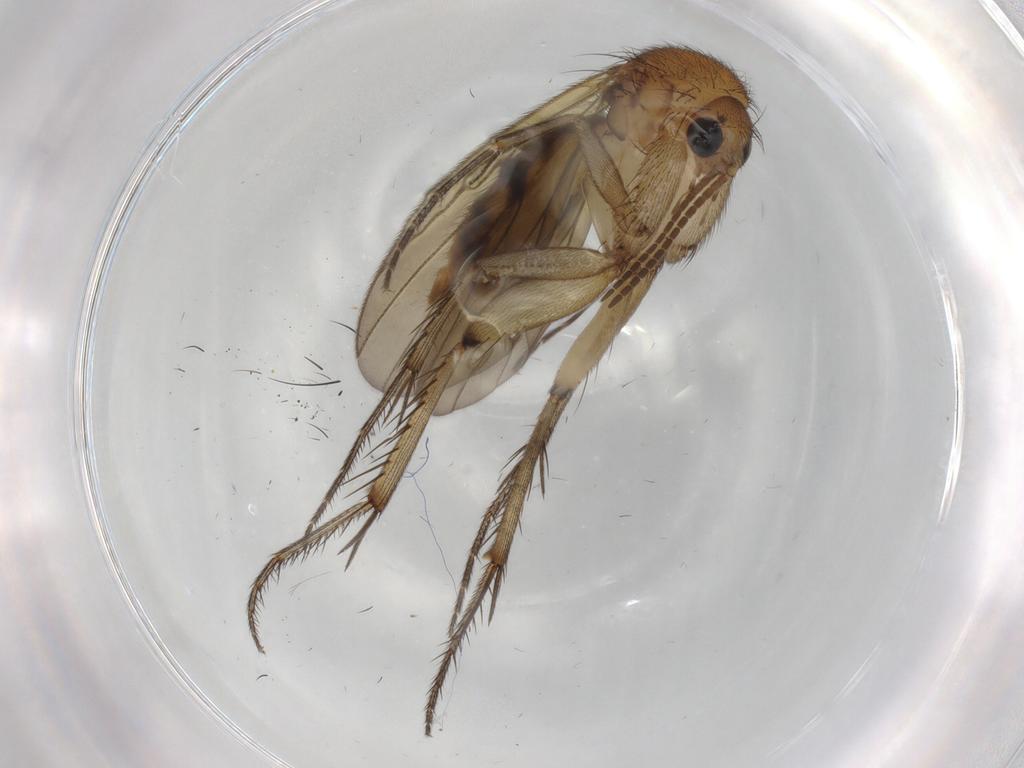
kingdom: Animalia
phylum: Arthropoda
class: Insecta
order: Diptera
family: Mycetophilidae
